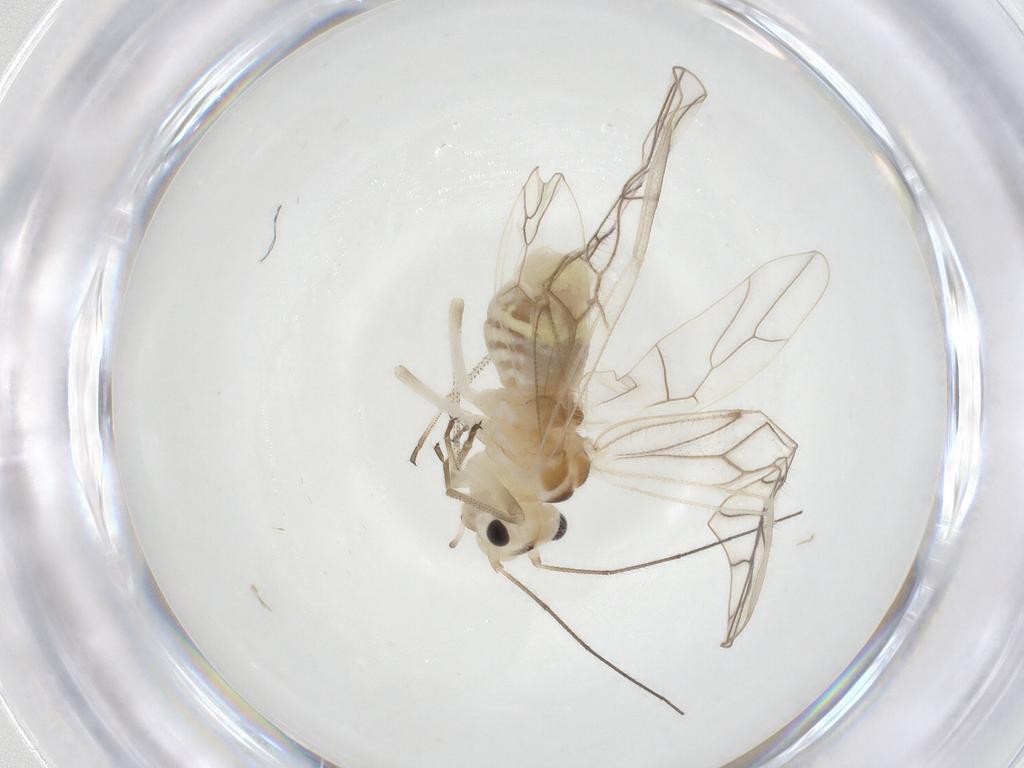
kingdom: Animalia
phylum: Arthropoda
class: Insecta
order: Psocodea
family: Stenopsocidae
